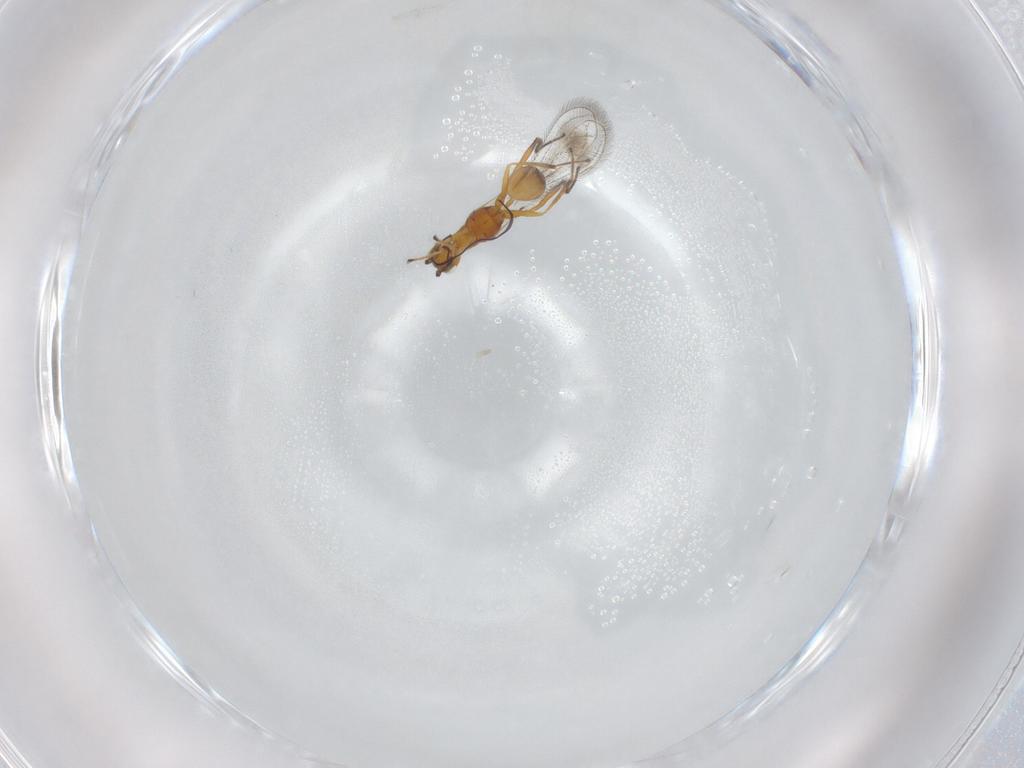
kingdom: Animalia
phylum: Arthropoda
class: Insecta
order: Hymenoptera
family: Mymaridae
